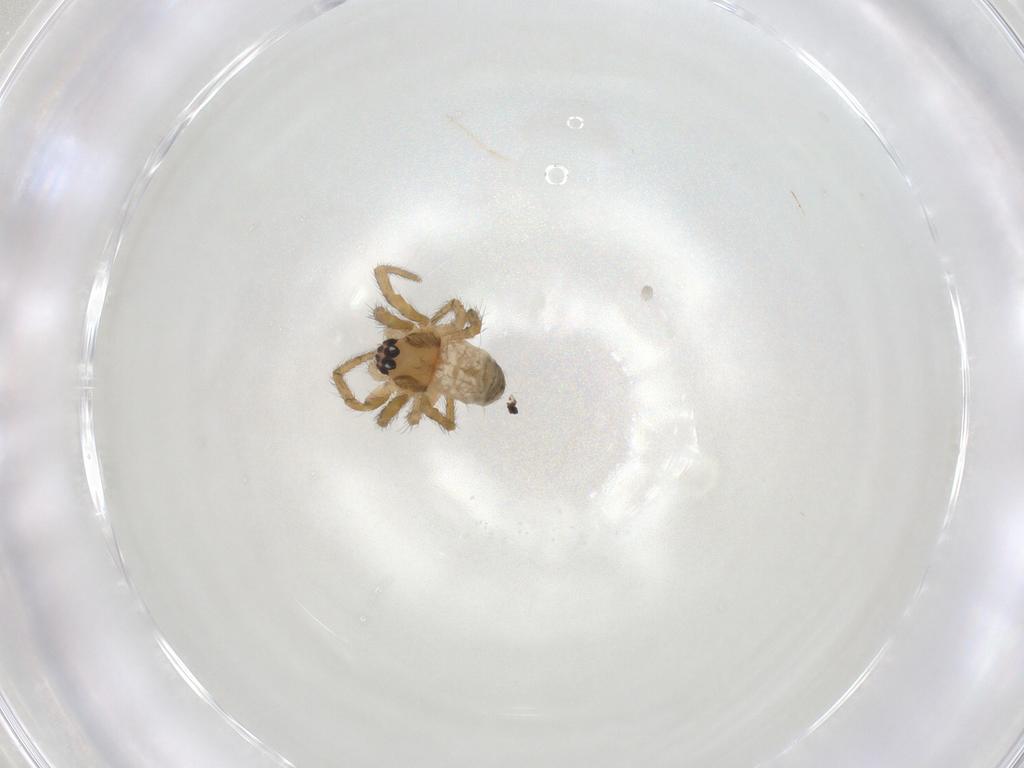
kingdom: Animalia
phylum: Arthropoda
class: Arachnida
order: Araneae
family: Araneidae
